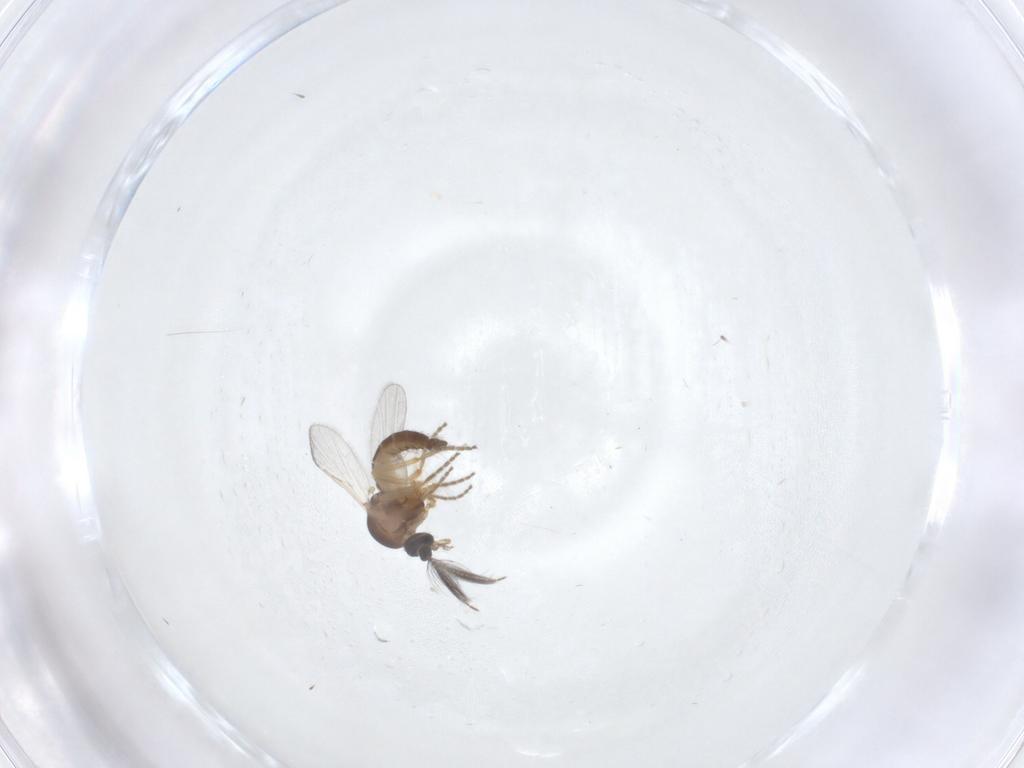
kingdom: Animalia
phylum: Arthropoda
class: Insecta
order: Diptera
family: Ceratopogonidae
